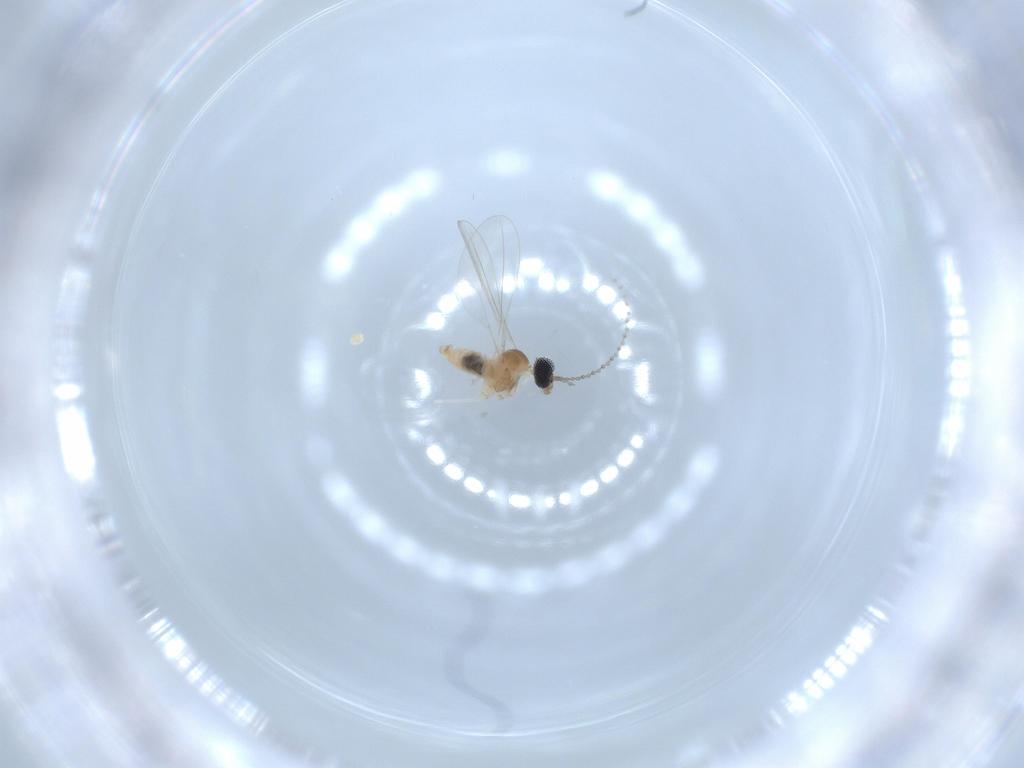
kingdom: Animalia
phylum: Arthropoda
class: Insecta
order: Diptera
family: Cecidomyiidae
